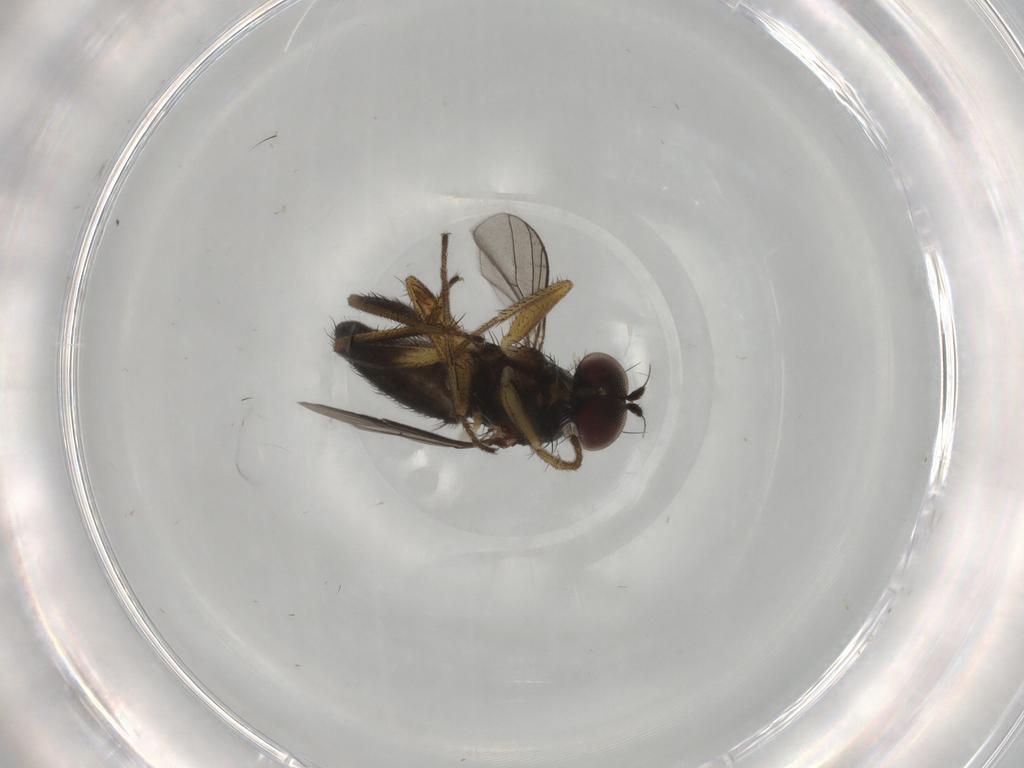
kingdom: Animalia
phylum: Arthropoda
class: Insecta
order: Diptera
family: Dolichopodidae
